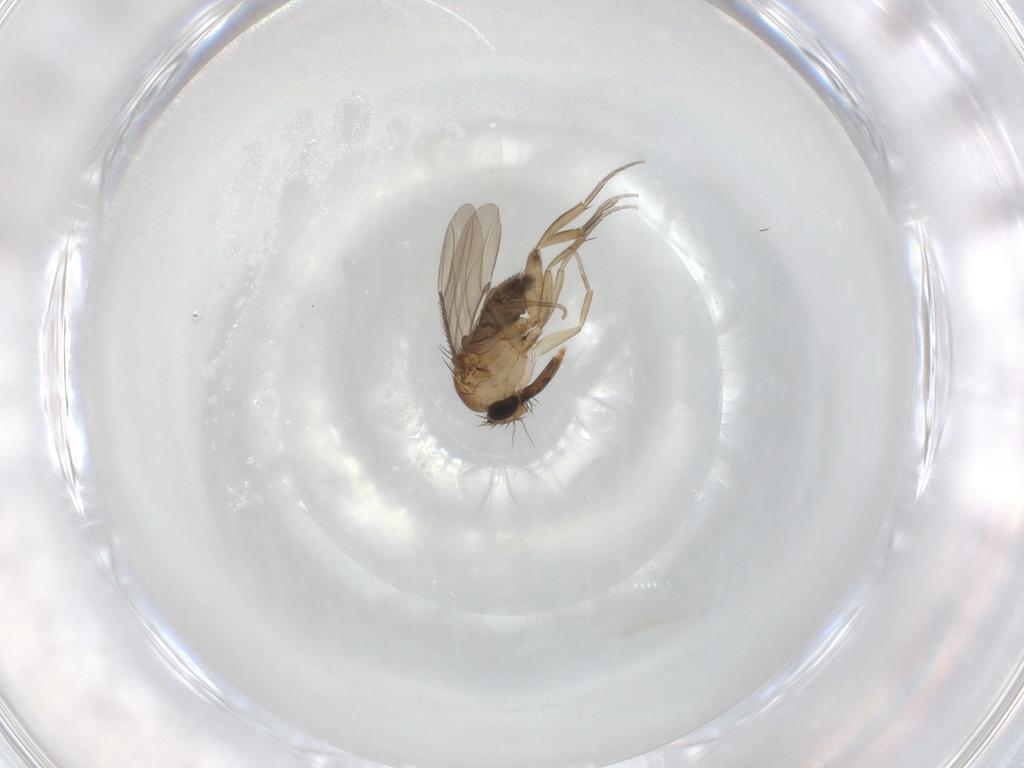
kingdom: Animalia
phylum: Arthropoda
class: Insecta
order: Diptera
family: Phoridae
